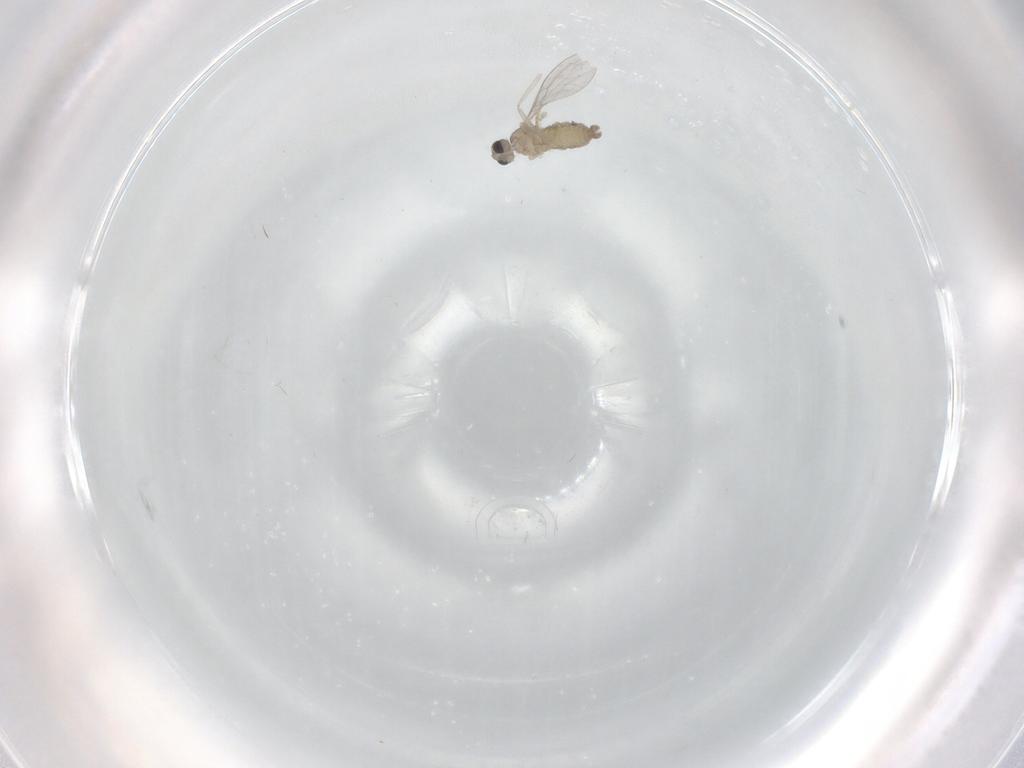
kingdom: Animalia
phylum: Arthropoda
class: Insecta
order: Diptera
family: Cecidomyiidae
